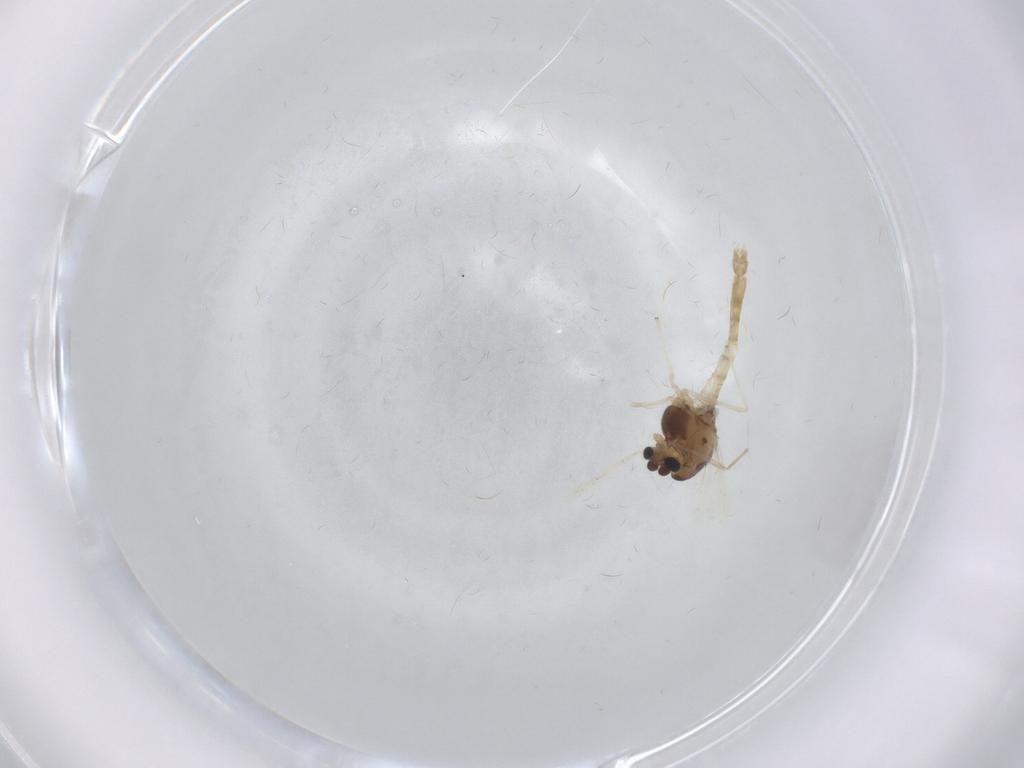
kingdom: Animalia
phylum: Arthropoda
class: Insecta
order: Diptera
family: Chironomidae
